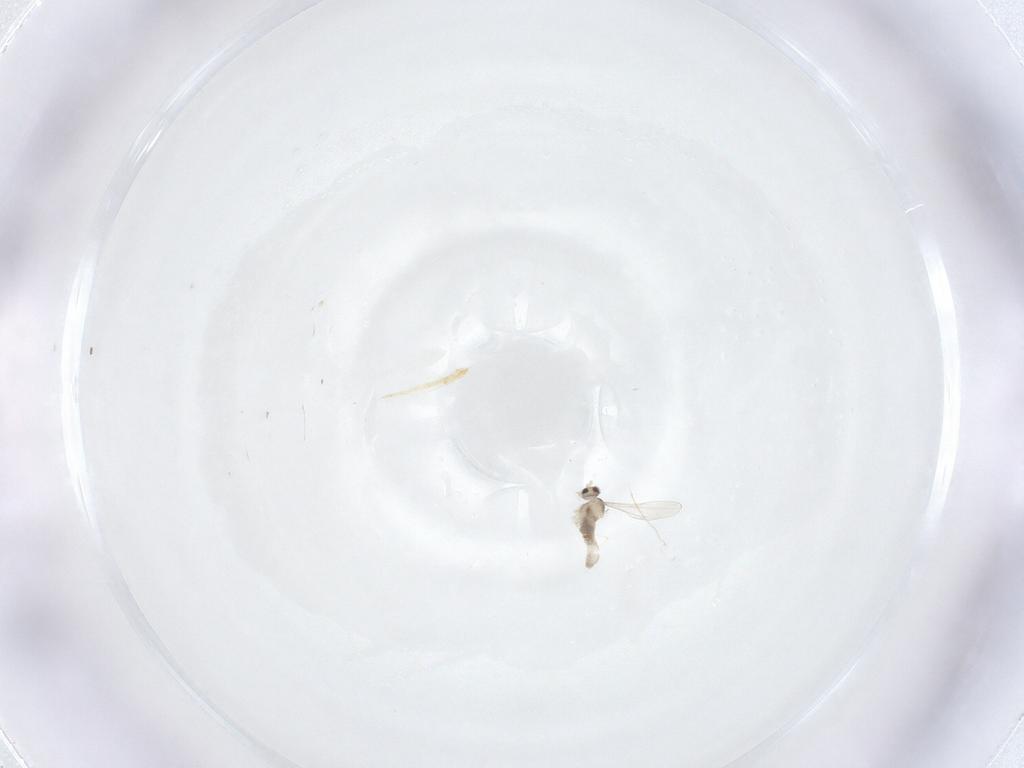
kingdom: Animalia
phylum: Arthropoda
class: Insecta
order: Diptera
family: Cecidomyiidae
